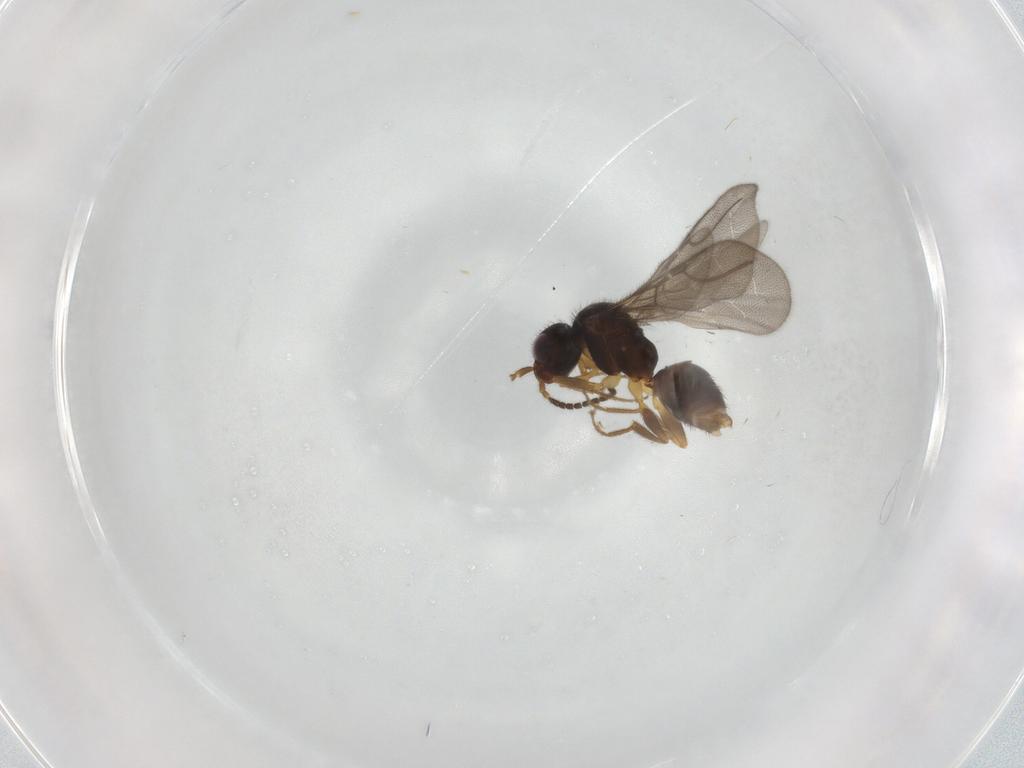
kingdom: Animalia
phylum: Arthropoda
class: Insecta
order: Hymenoptera
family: Bethylidae
